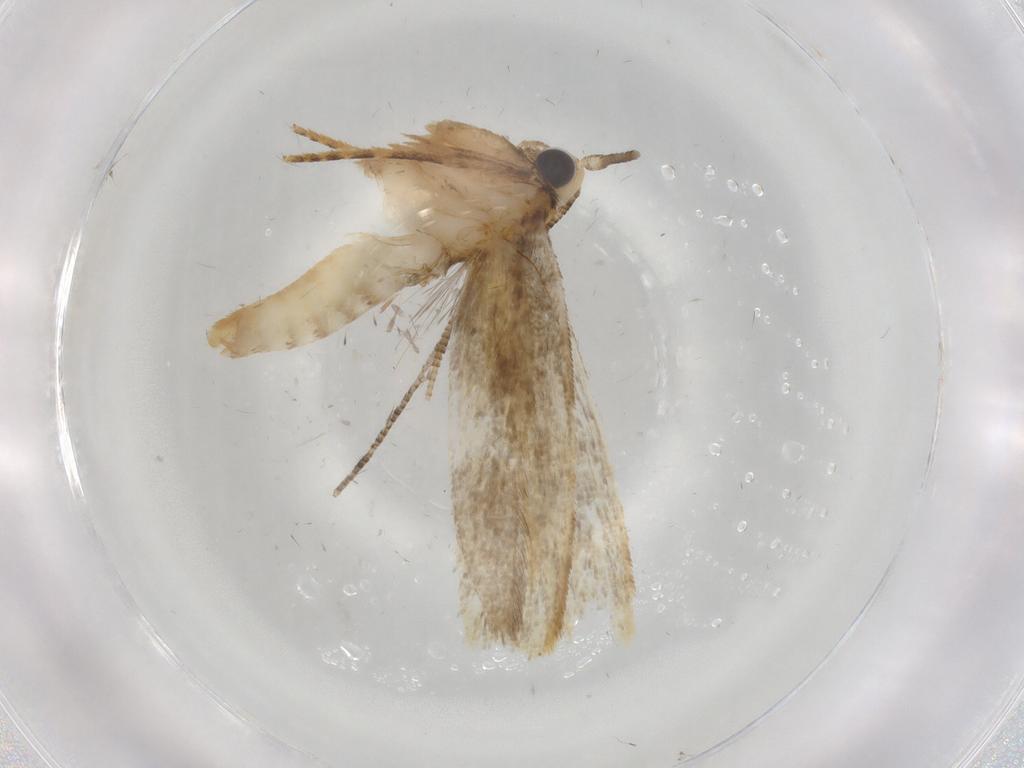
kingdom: Animalia
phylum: Arthropoda
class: Insecta
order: Lepidoptera
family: Tineidae
